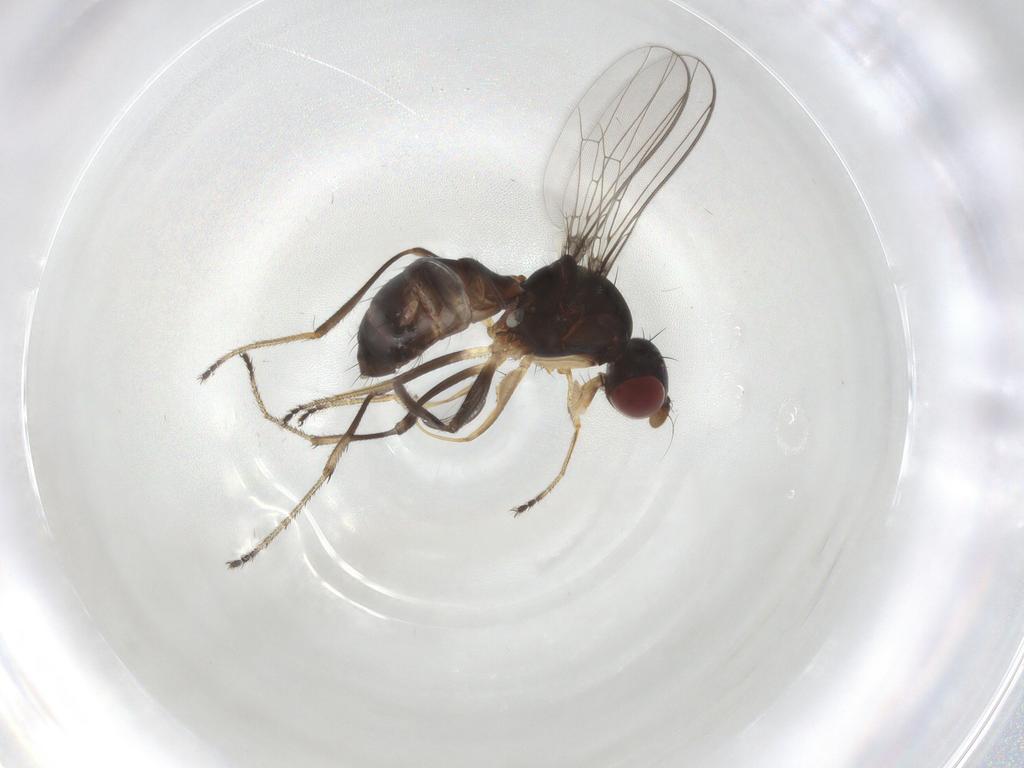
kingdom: Animalia
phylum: Arthropoda
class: Insecta
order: Diptera
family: Sepsidae
